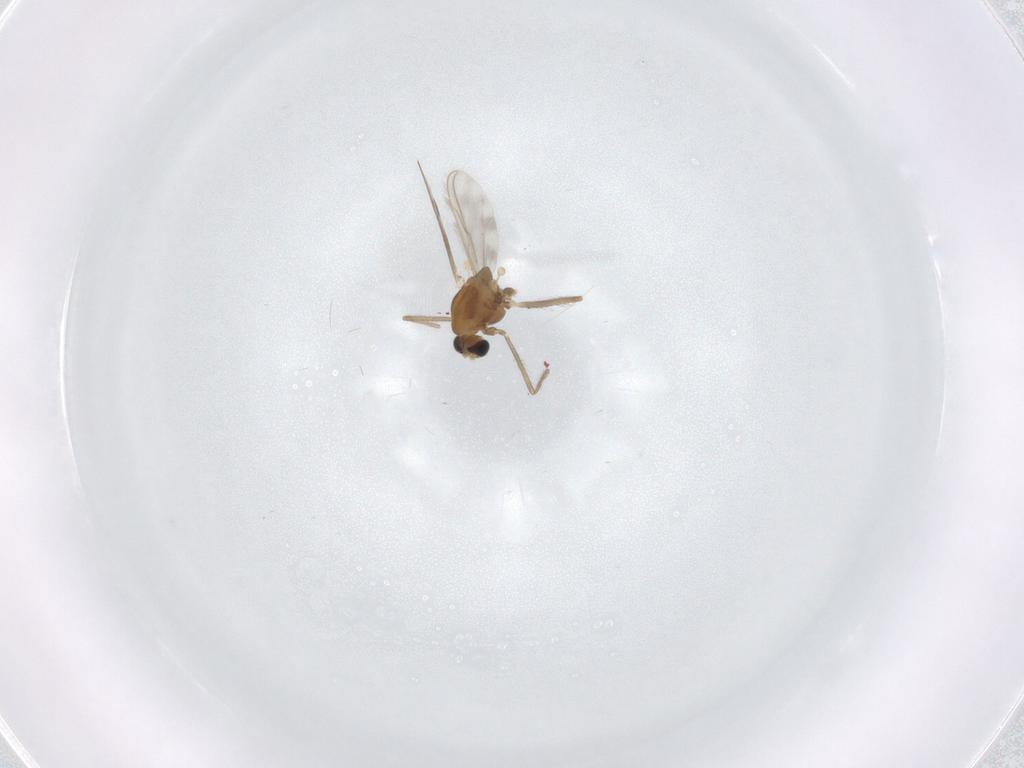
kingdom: Animalia
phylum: Arthropoda
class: Insecta
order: Diptera
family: Chironomidae
